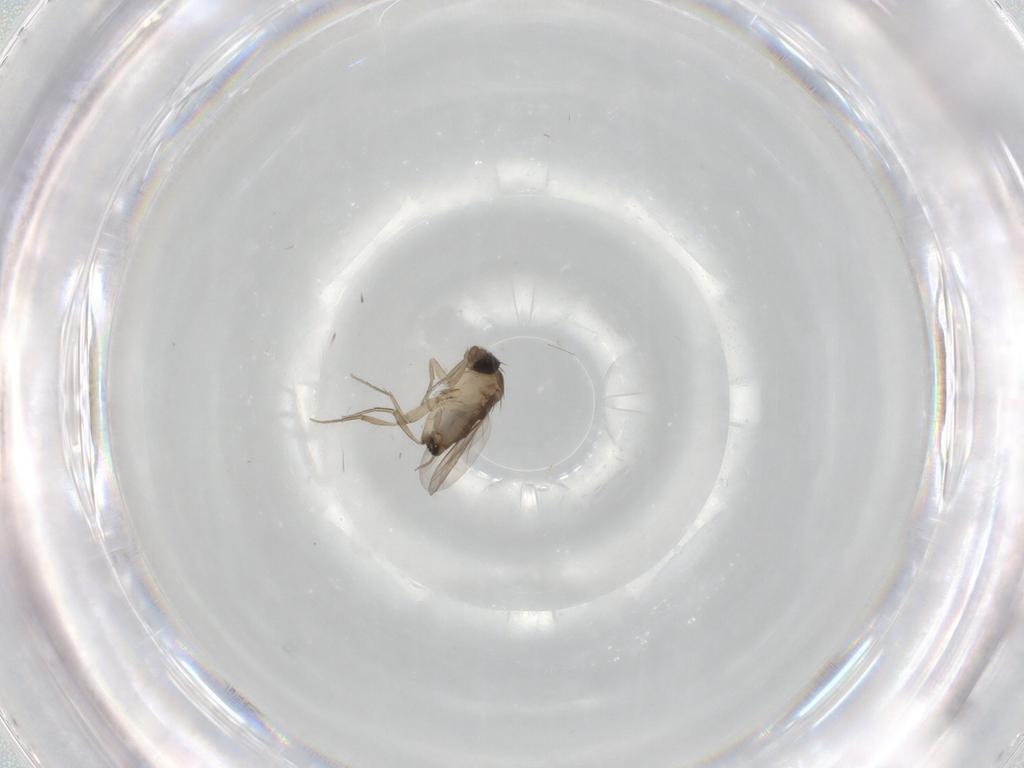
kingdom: Animalia
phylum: Arthropoda
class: Insecta
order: Diptera
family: Phoridae
